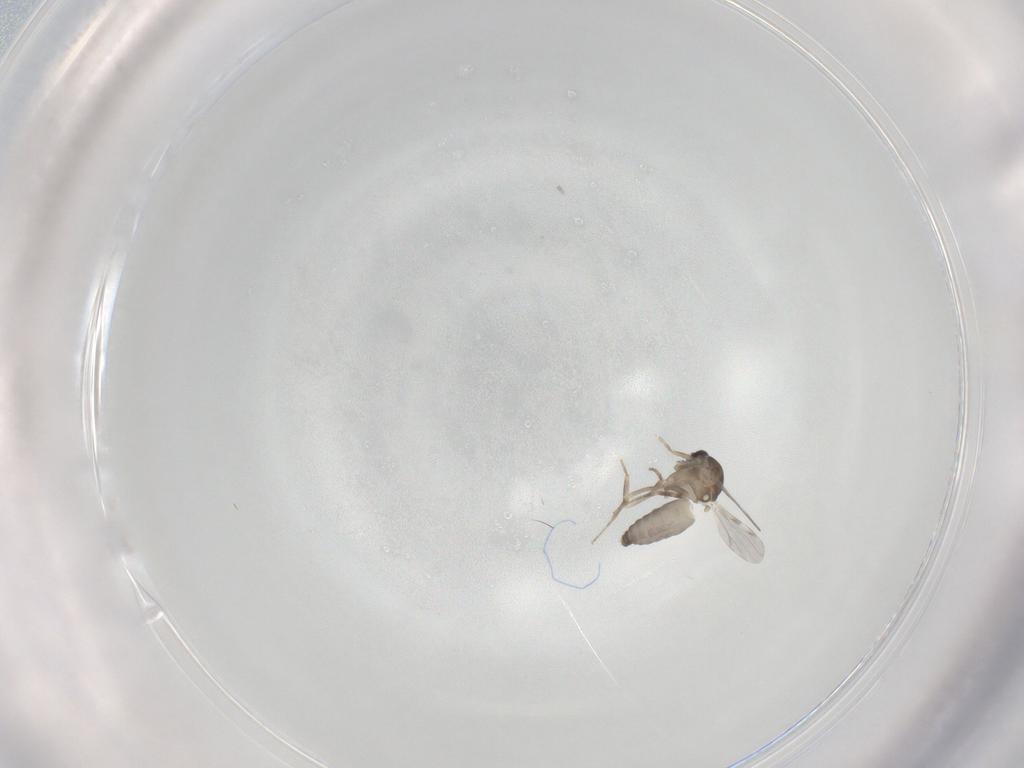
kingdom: Animalia
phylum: Arthropoda
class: Insecta
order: Diptera
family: Ceratopogonidae
